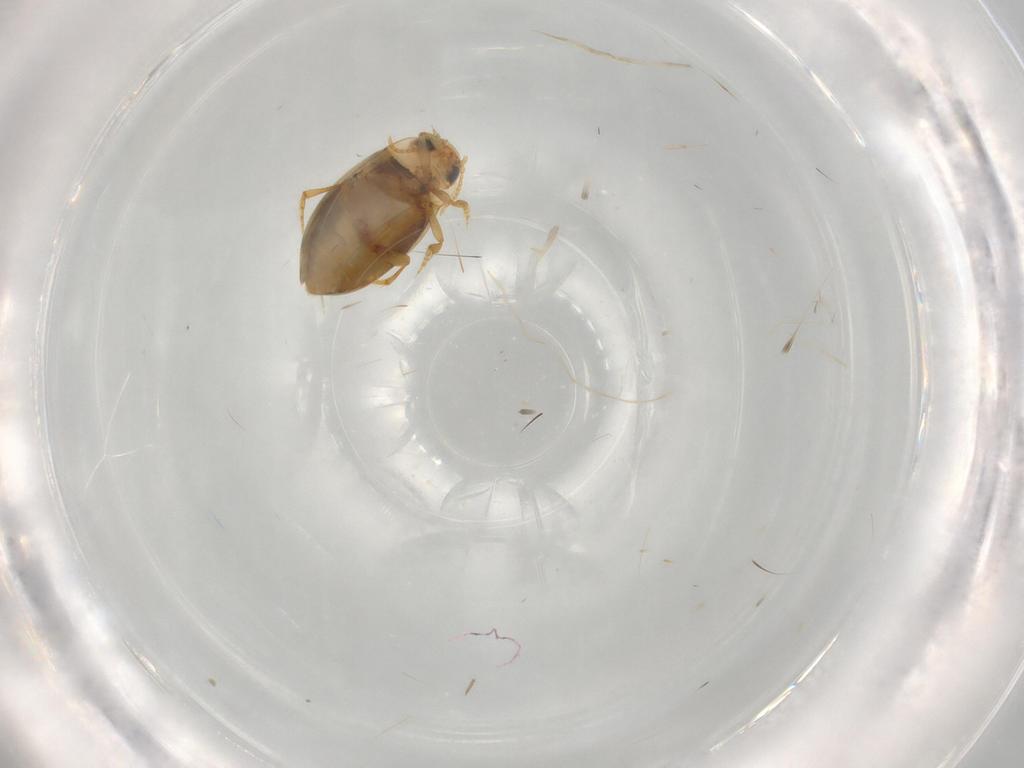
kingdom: Animalia
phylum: Arthropoda
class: Insecta
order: Coleoptera
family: Dytiscidae
